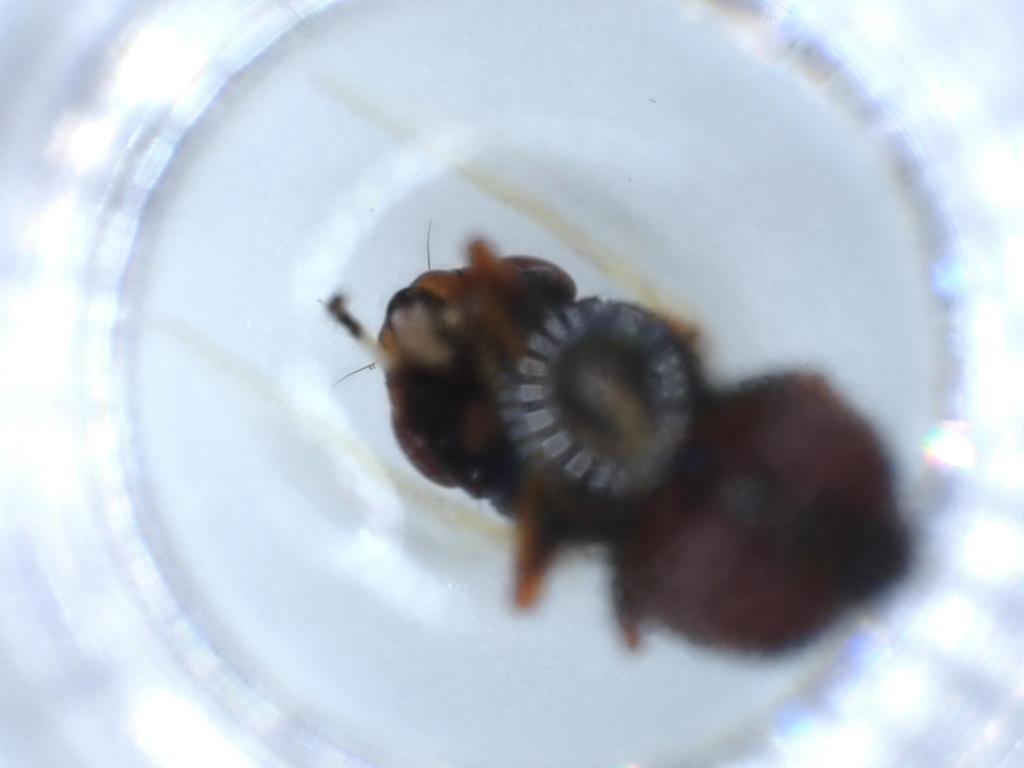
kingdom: Animalia
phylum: Arthropoda
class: Insecta
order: Diptera
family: Ulidiidae
